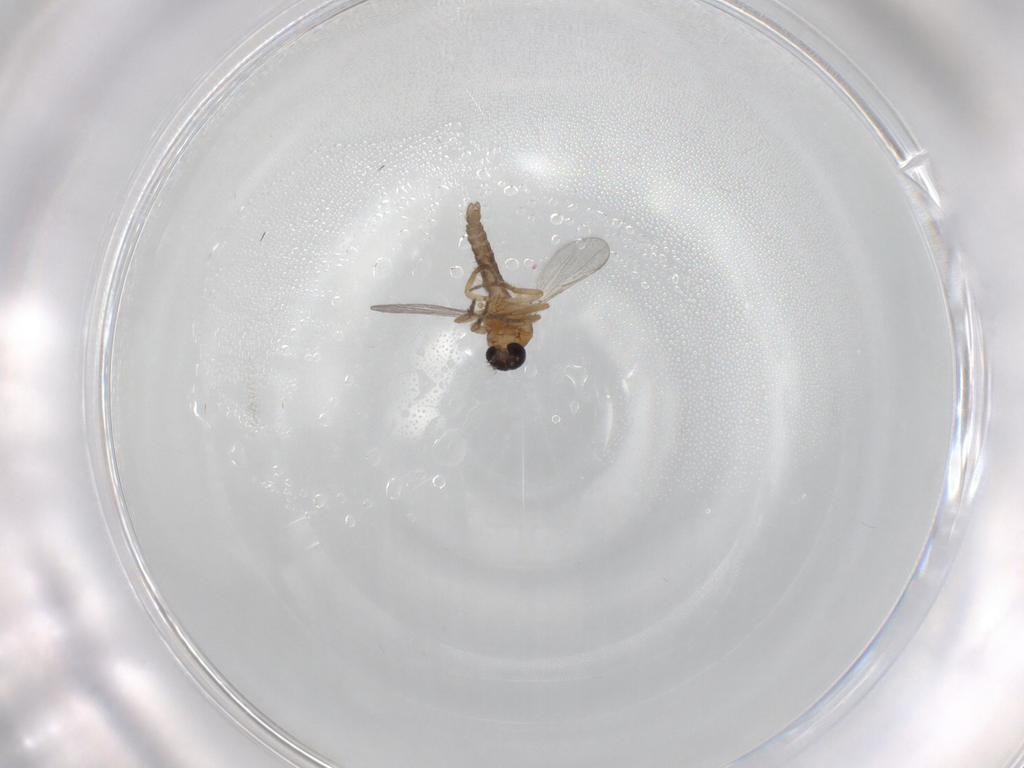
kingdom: Animalia
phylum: Arthropoda
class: Insecta
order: Diptera
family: Ceratopogonidae
